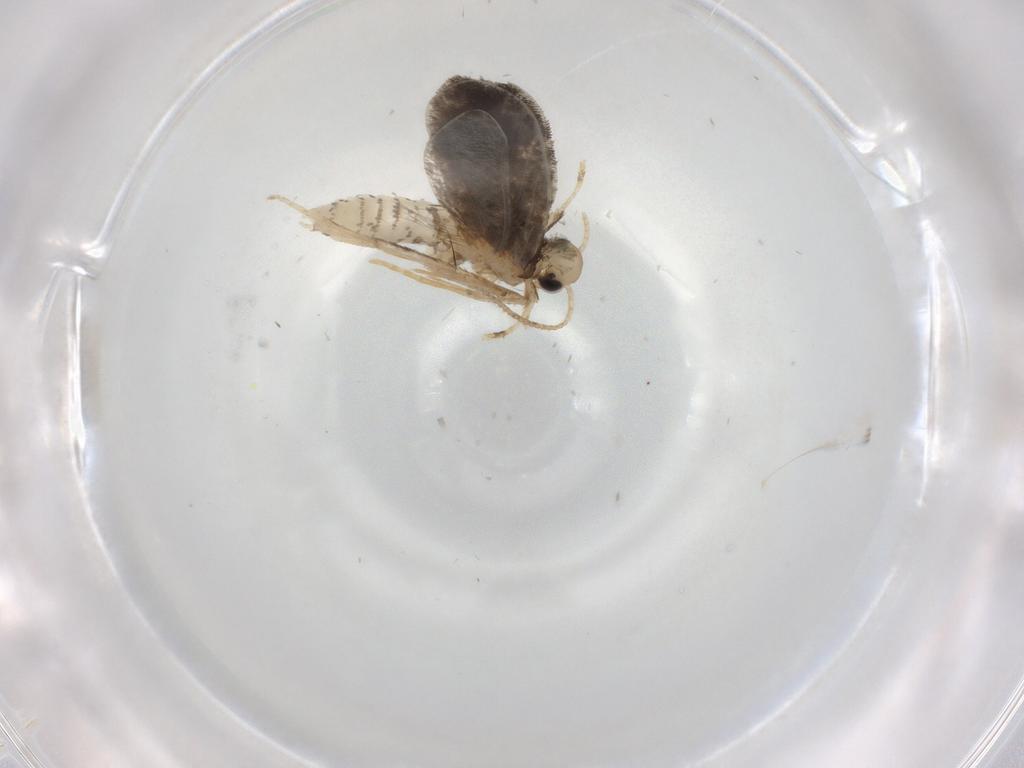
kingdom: Animalia
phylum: Arthropoda
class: Insecta
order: Lepidoptera
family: Psychidae
